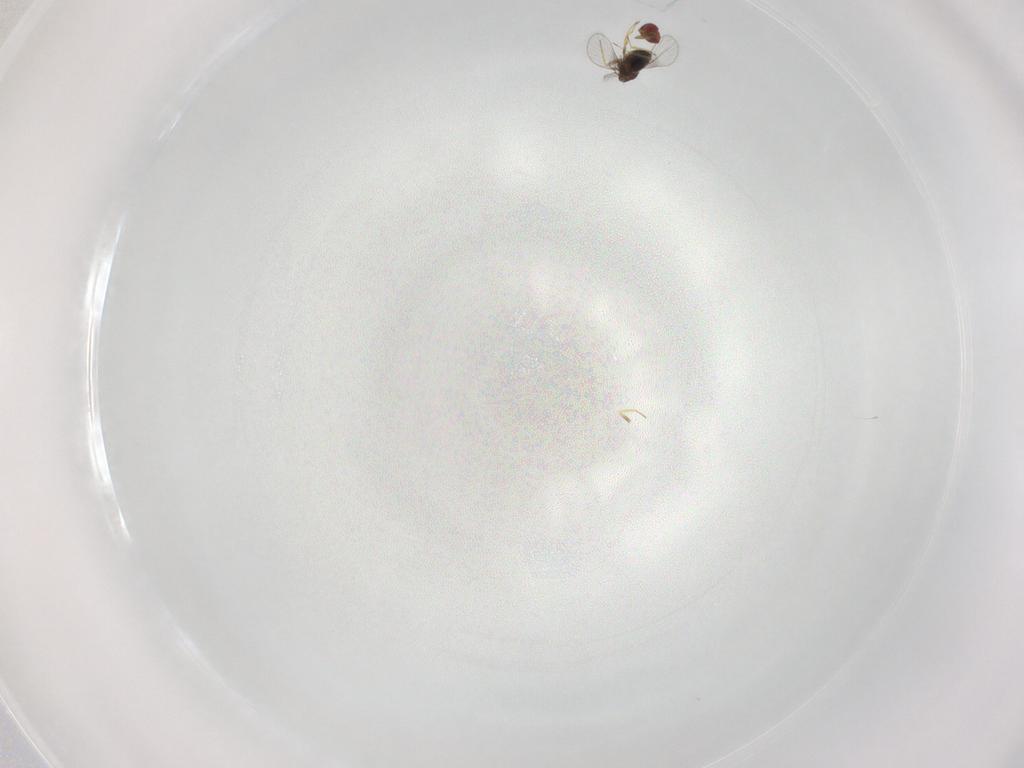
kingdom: Animalia
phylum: Arthropoda
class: Insecta
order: Hymenoptera
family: Trichogrammatidae
